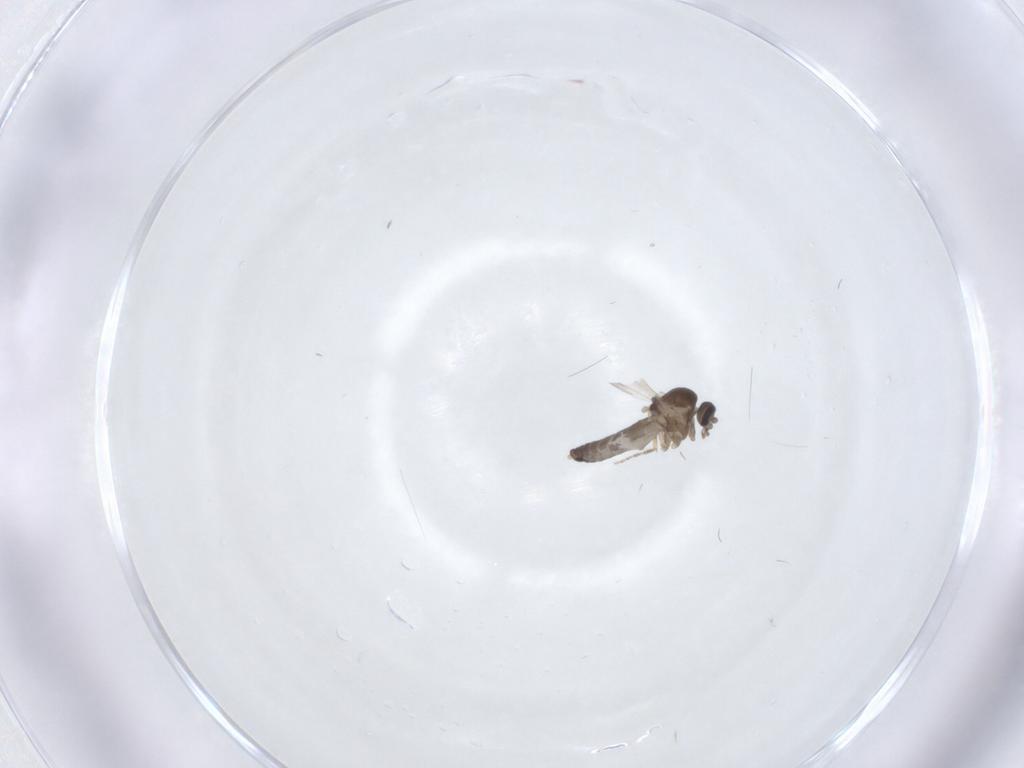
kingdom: Animalia
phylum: Arthropoda
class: Insecta
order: Diptera
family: Ceratopogonidae
